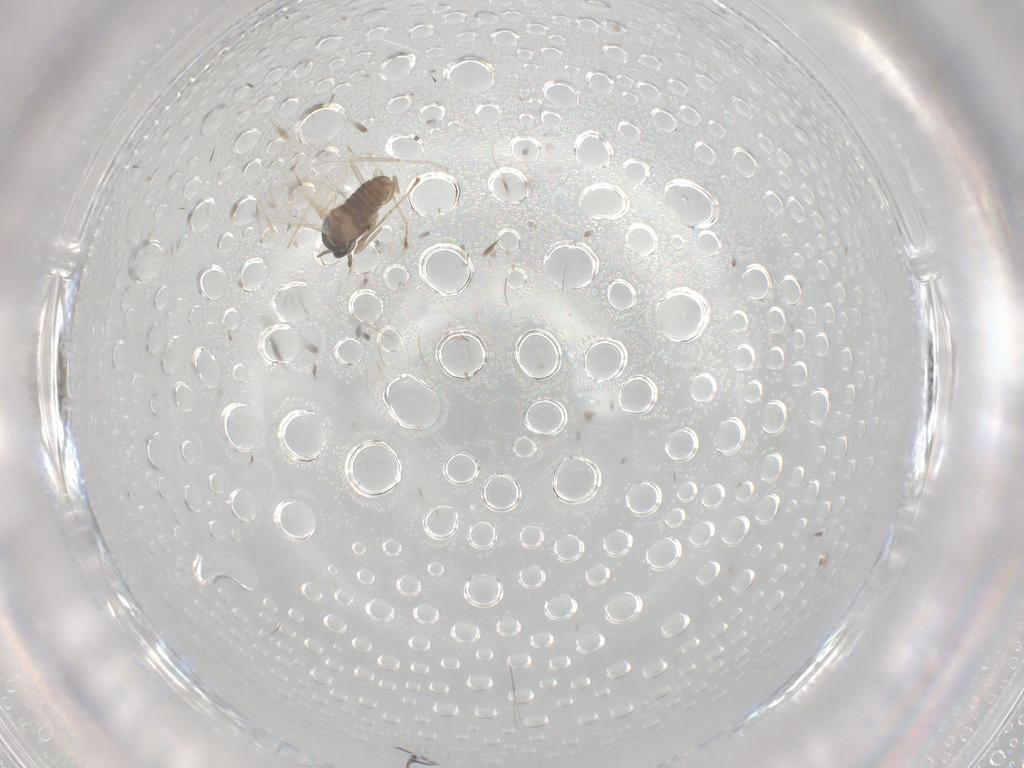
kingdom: Animalia
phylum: Arthropoda
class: Insecta
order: Diptera
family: Cecidomyiidae
